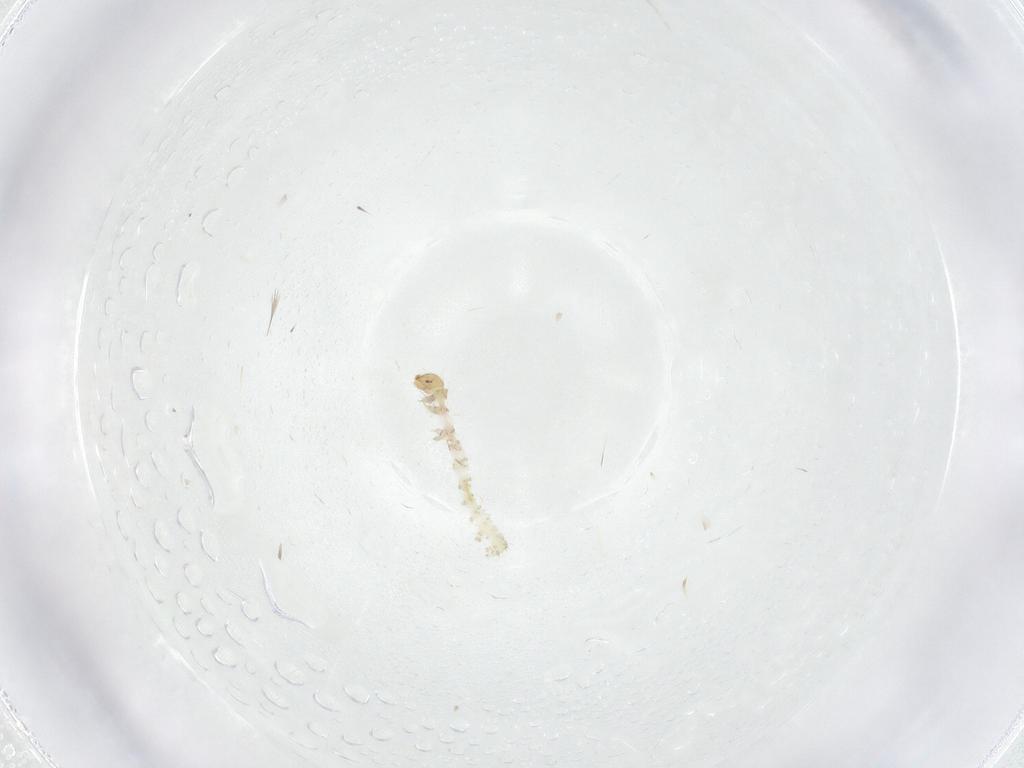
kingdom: Animalia
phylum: Arthropoda
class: Insecta
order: Lepidoptera
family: Erebidae
